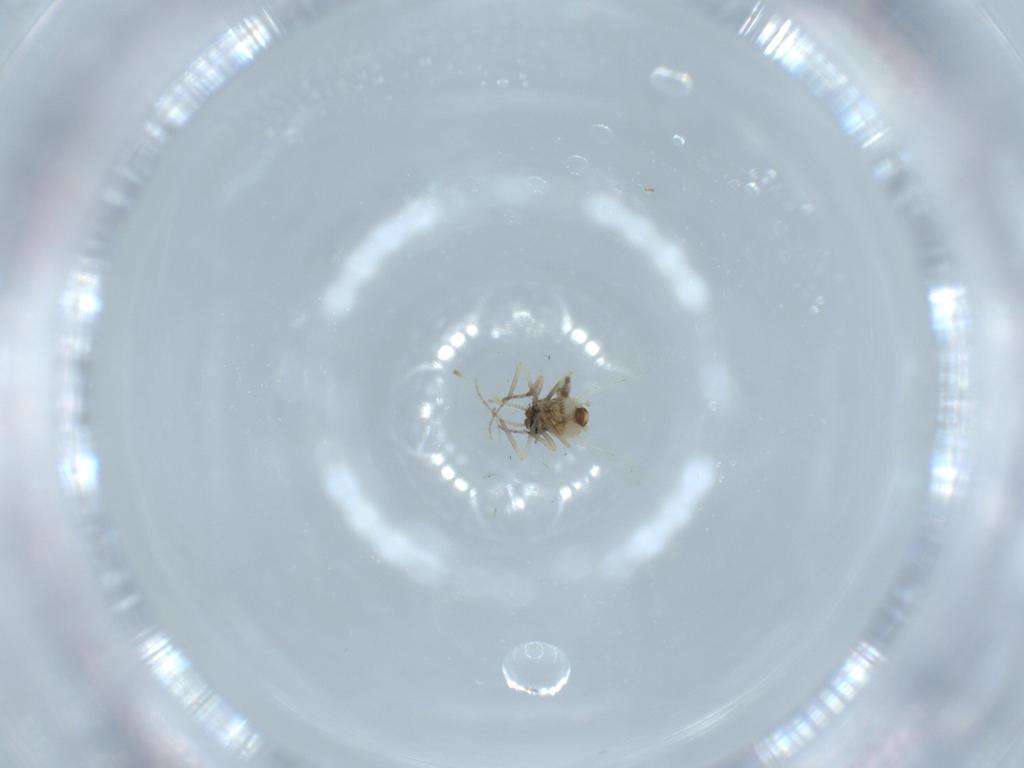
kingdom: Animalia
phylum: Arthropoda
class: Insecta
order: Diptera
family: Ceratopogonidae
